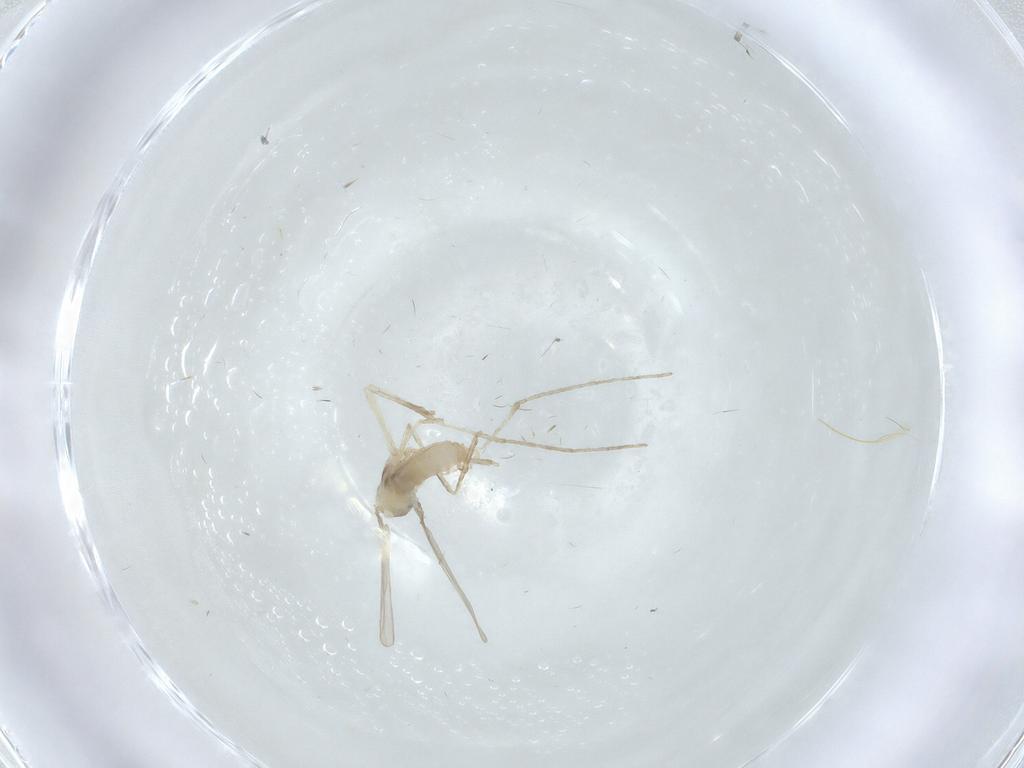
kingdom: Animalia
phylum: Arthropoda
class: Insecta
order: Diptera
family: Cecidomyiidae
